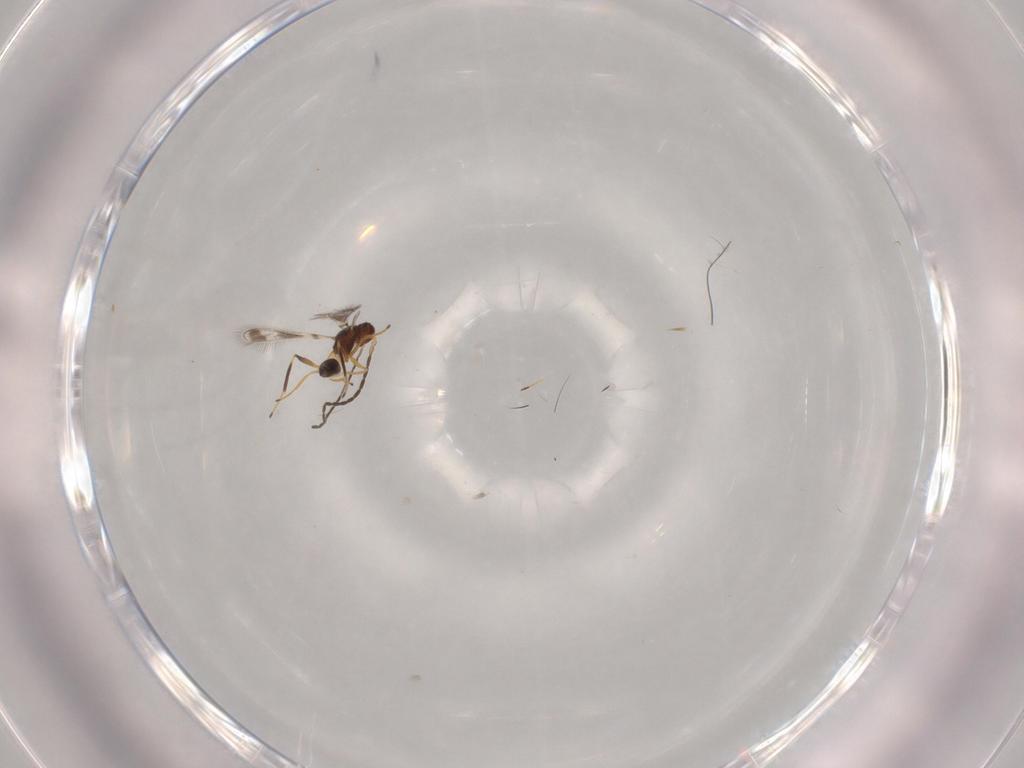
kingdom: Animalia
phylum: Arthropoda
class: Insecta
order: Hymenoptera
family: Mymaridae
